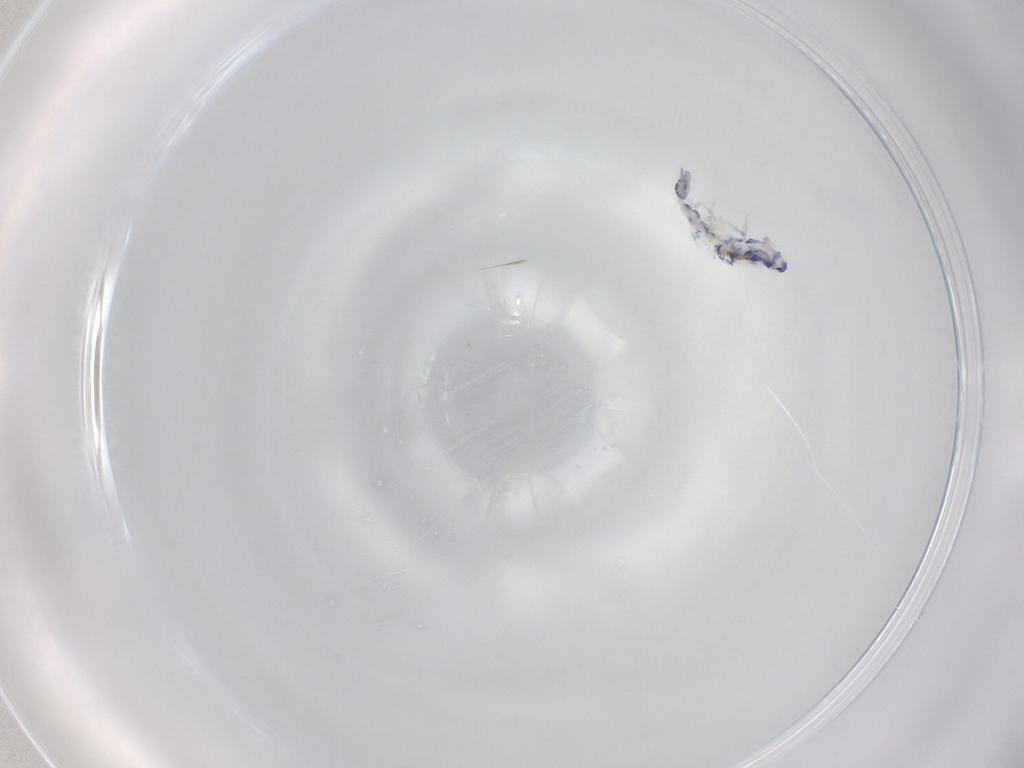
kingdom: Animalia
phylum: Arthropoda
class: Collembola
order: Entomobryomorpha
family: Entomobryidae
